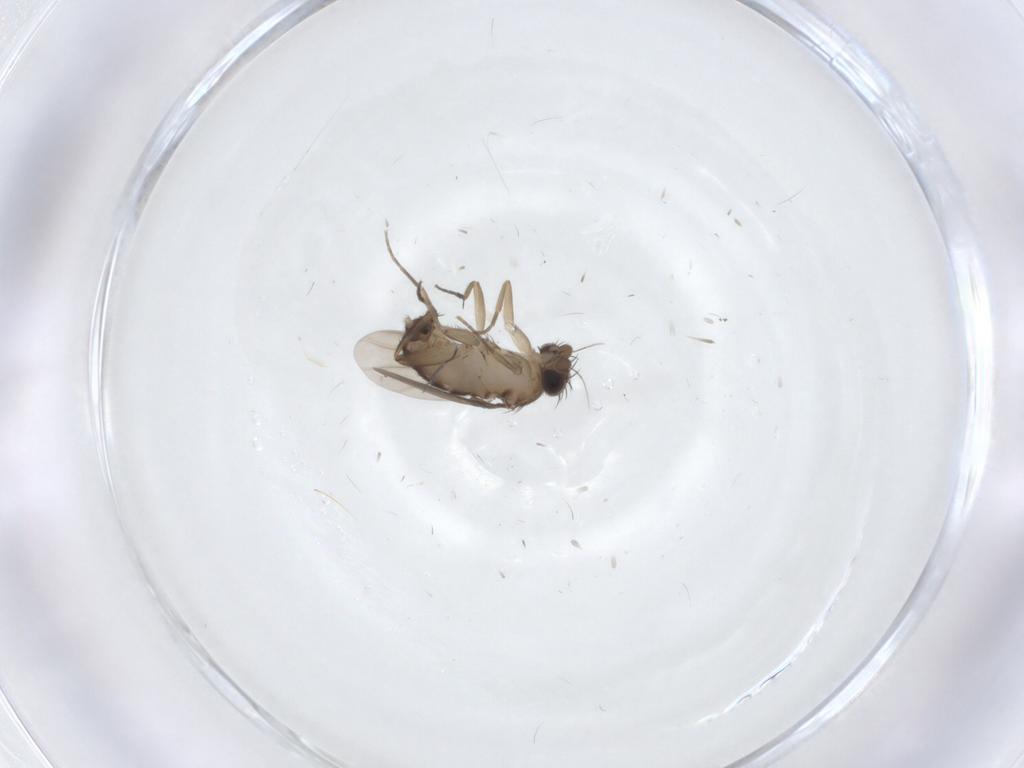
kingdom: Animalia
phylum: Arthropoda
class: Insecta
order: Diptera
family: Phoridae
